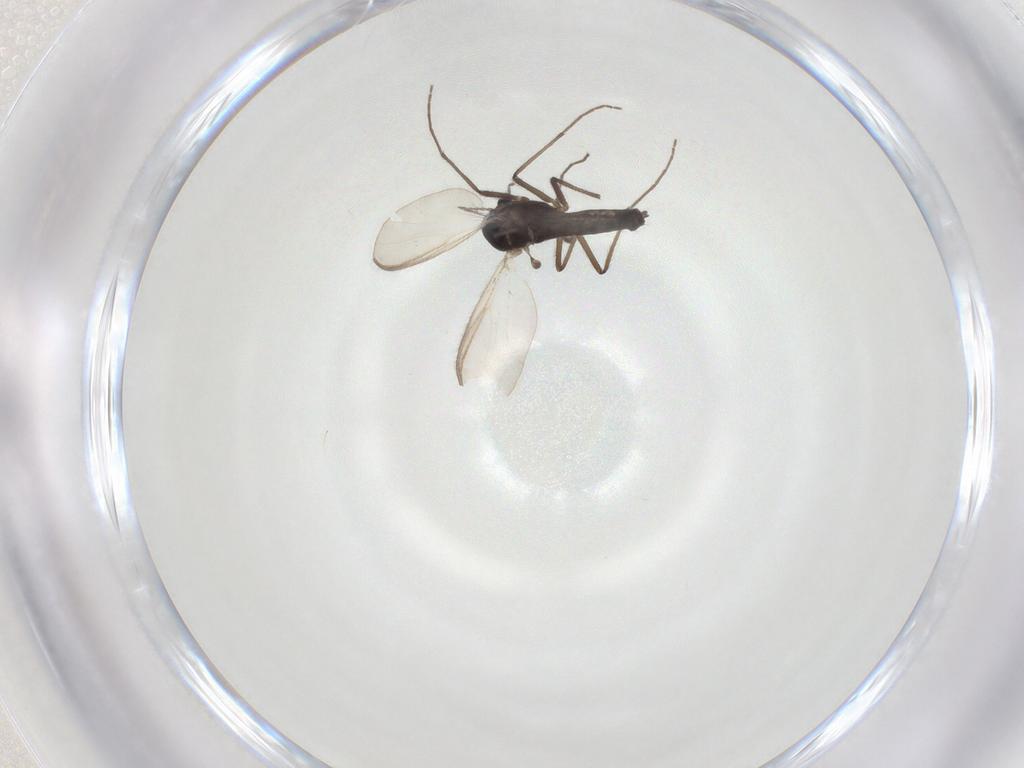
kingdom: Animalia
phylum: Arthropoda
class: Insecta
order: Diptera
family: Chironomidae
